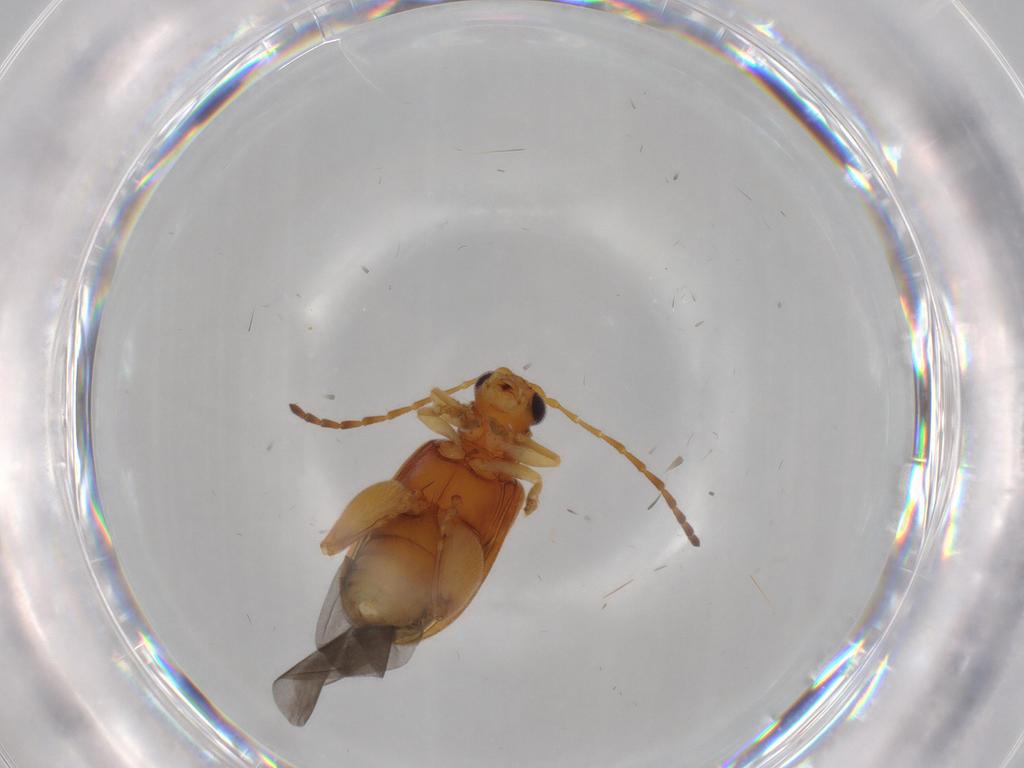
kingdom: Animalia
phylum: Arthropoda
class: Insecta
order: Coleoptera
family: Chrysomelidae
